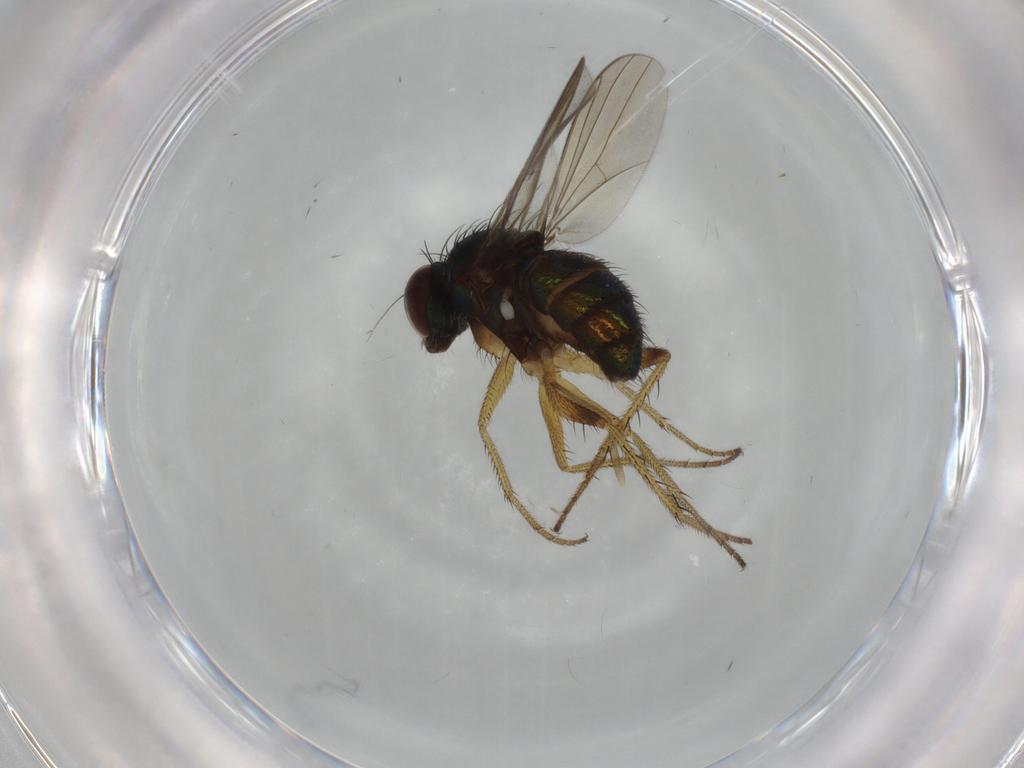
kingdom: Animalia
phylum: Arthropoda
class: Insecta
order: Diptera
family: Dolichopodidae
